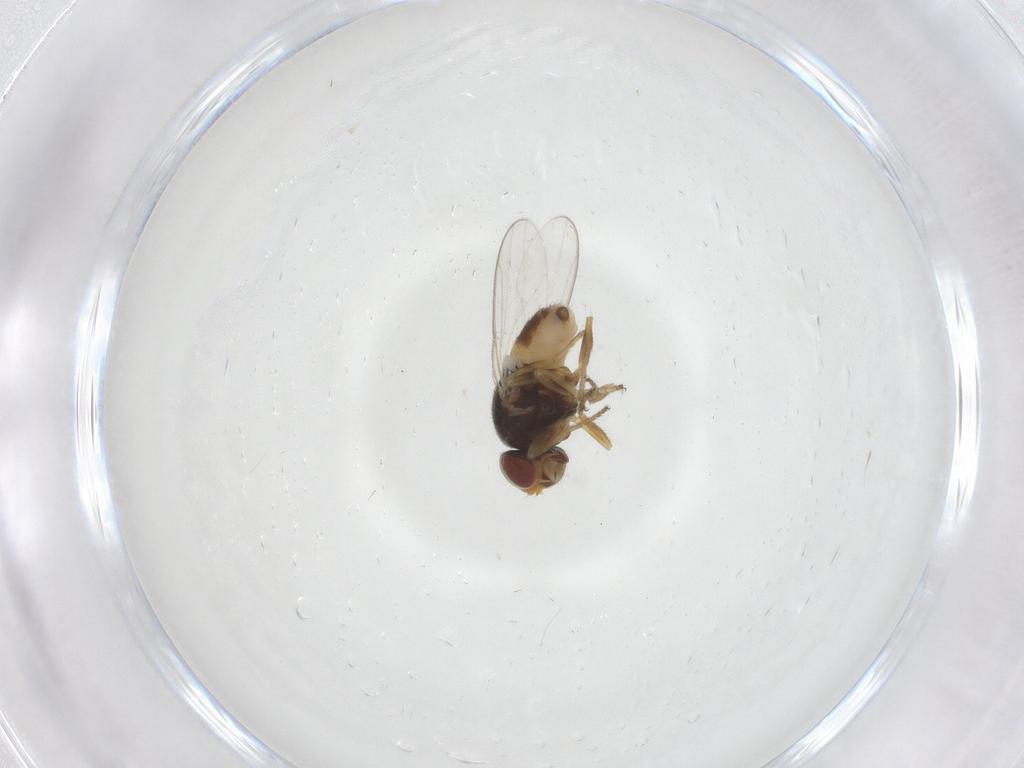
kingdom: Animalia
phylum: Arthropoda
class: Insecta
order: Diptera
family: Chloropidae
